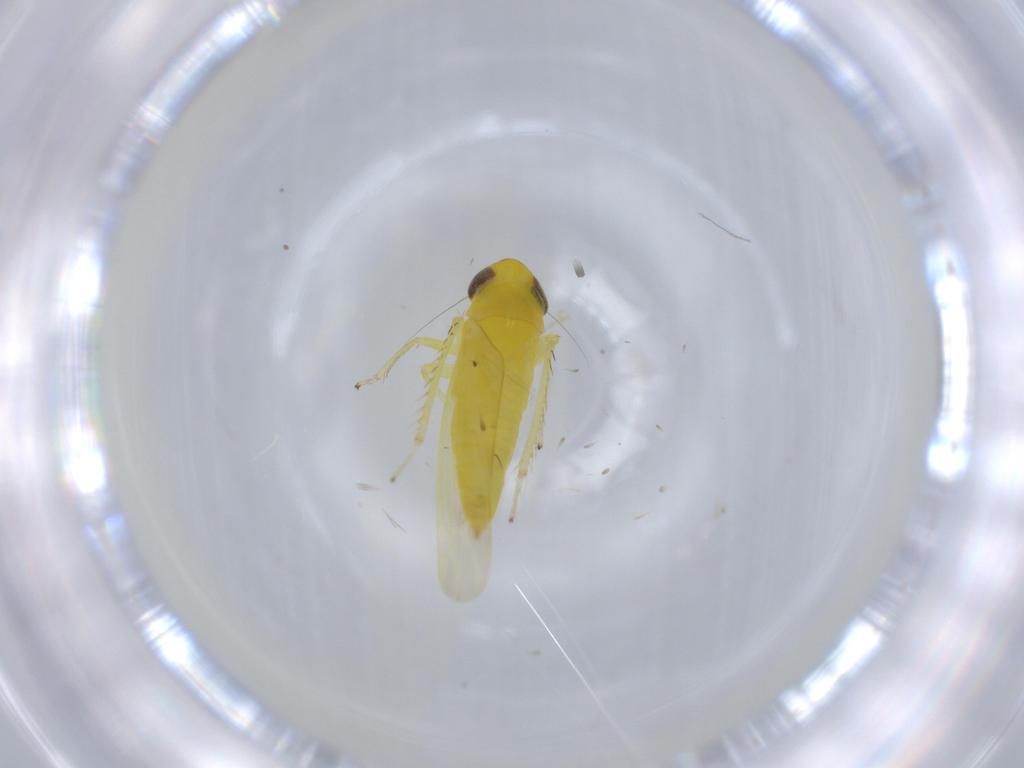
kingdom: Animalia
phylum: Arthropoda
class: Insecta
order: Hemiptera
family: Cicadellidae
